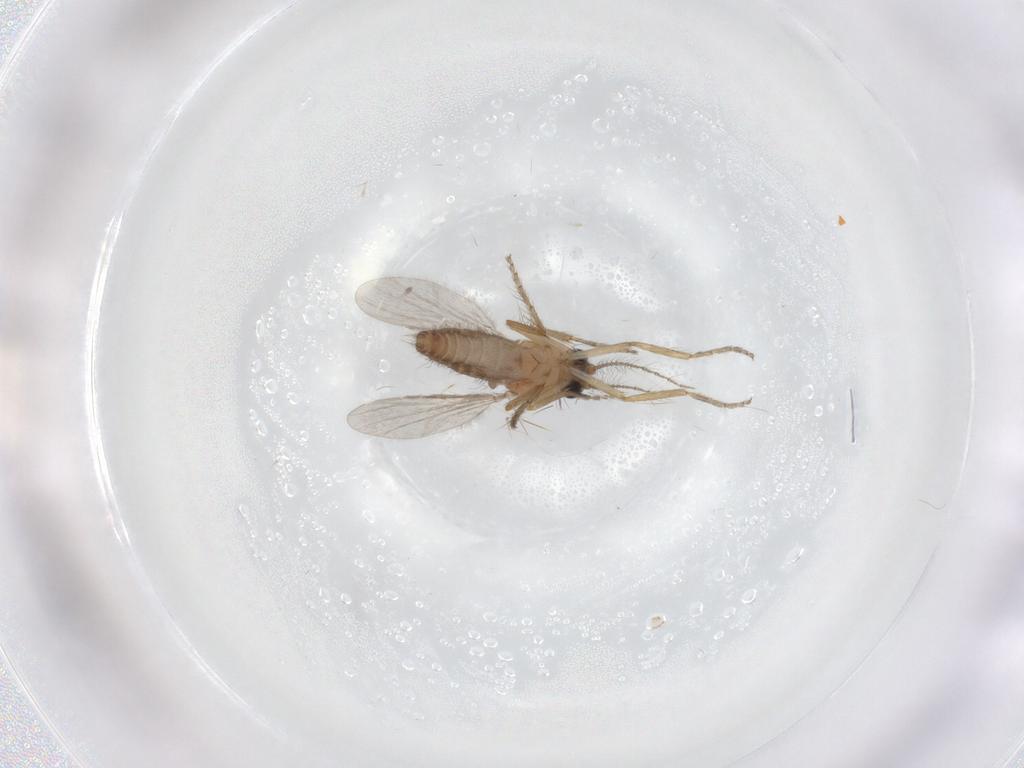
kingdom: Animalia
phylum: Arthropoda
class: Insecta
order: Diptera
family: Ceratopogonidae
